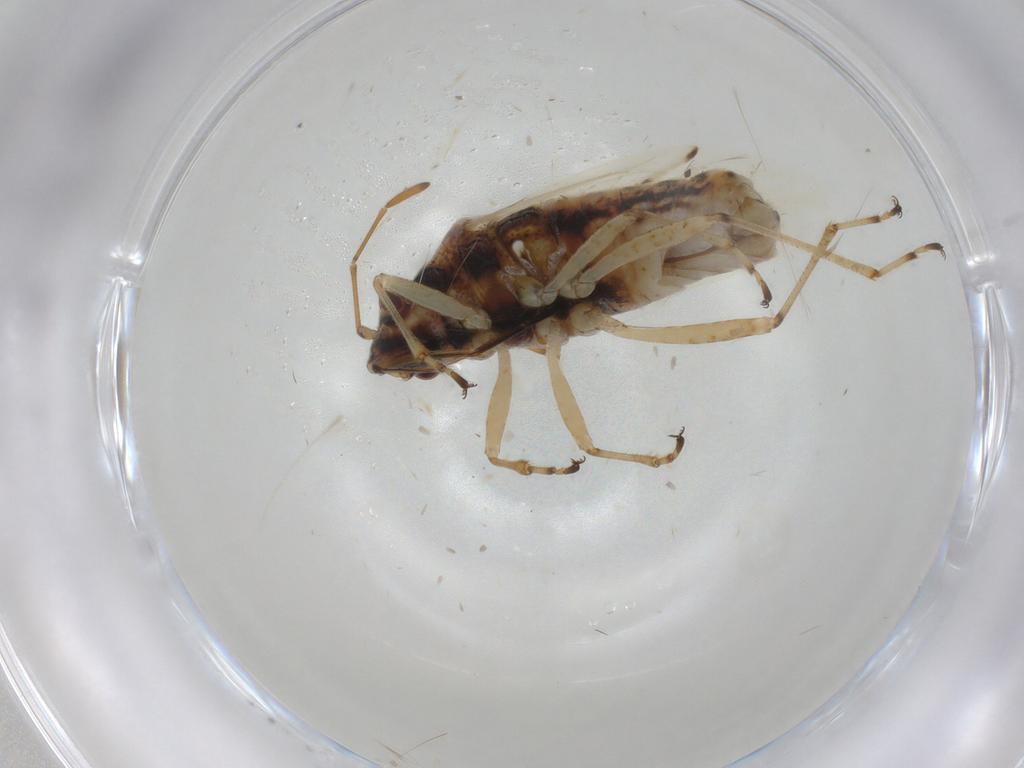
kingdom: Animalia
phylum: Arthropoda
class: Insecta
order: Hemiptera
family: Lygaeidae
